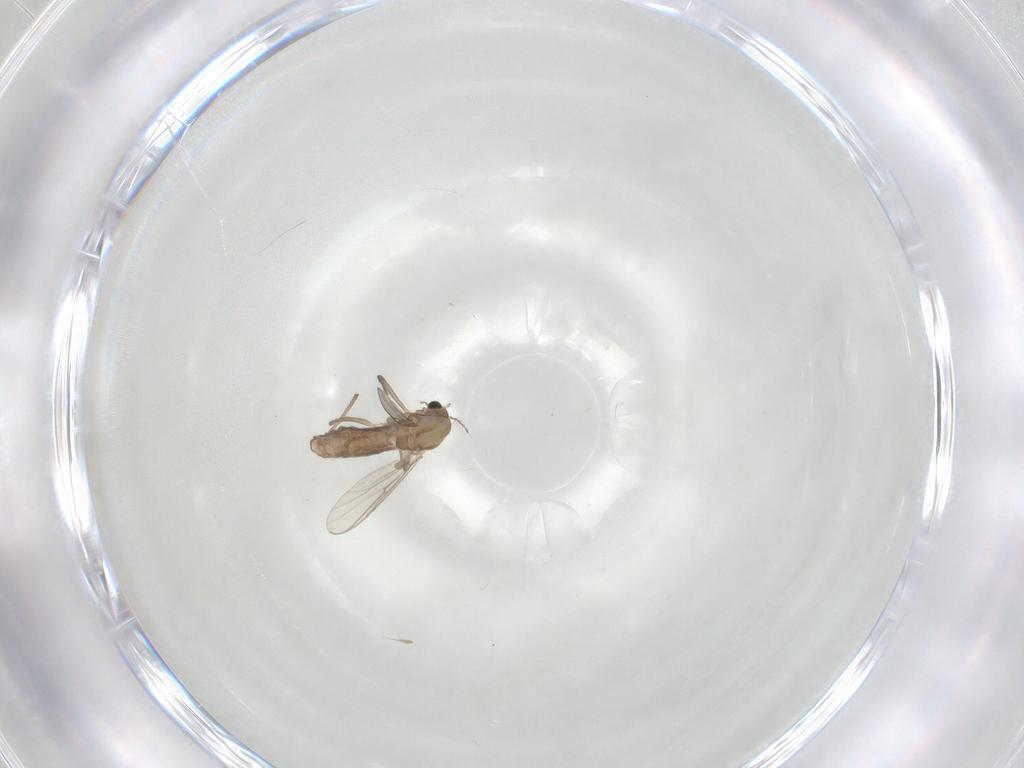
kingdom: Animalia
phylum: Arthropoda
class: Insecta
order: Diptera
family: Chironomidae
